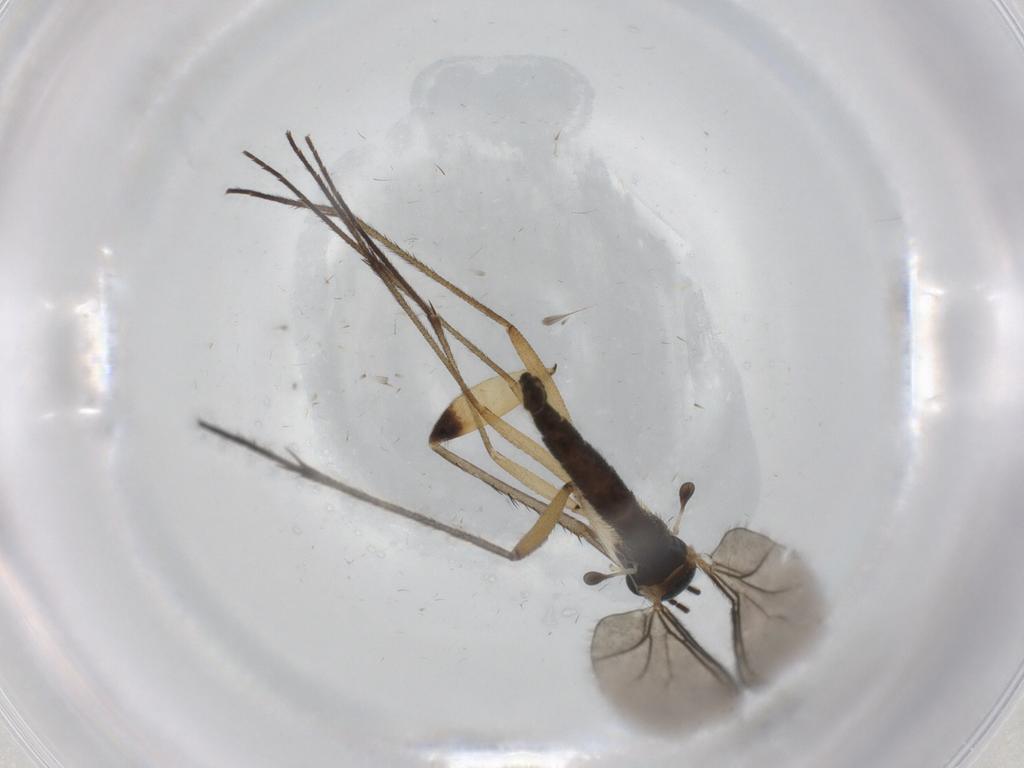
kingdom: Animalia
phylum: Arthropoda
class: Insecta
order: Diptera
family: Sciaridae
